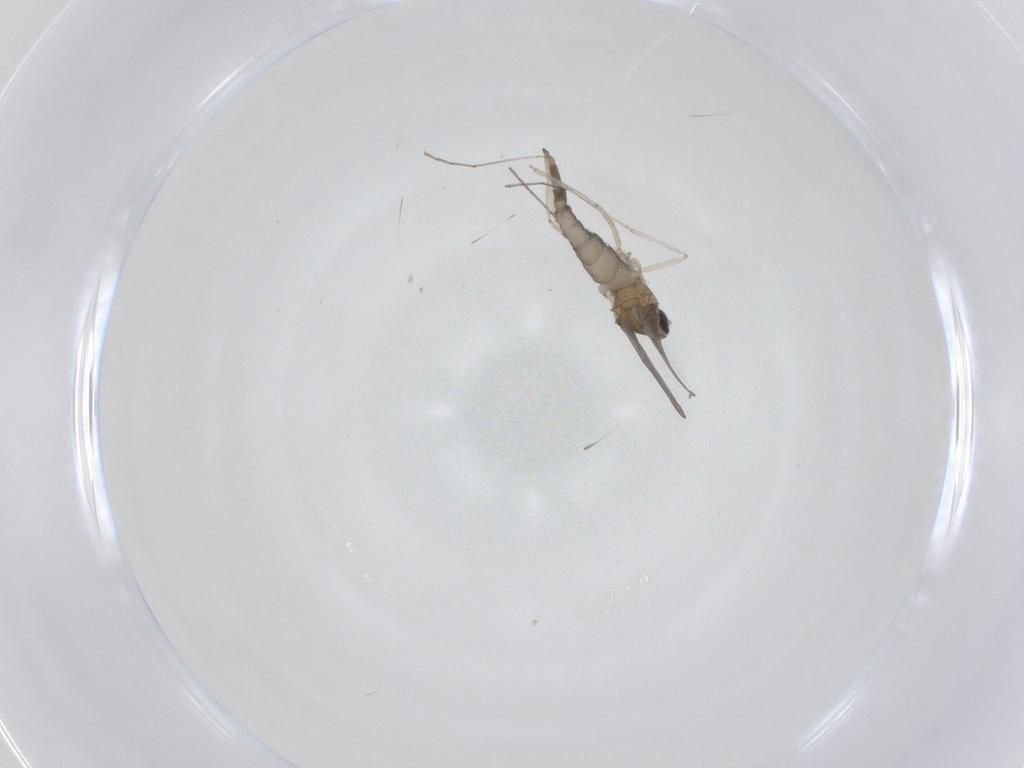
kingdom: Animalia
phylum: Arthropoda
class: Insecta
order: Diptera
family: Cecidomyiidae
